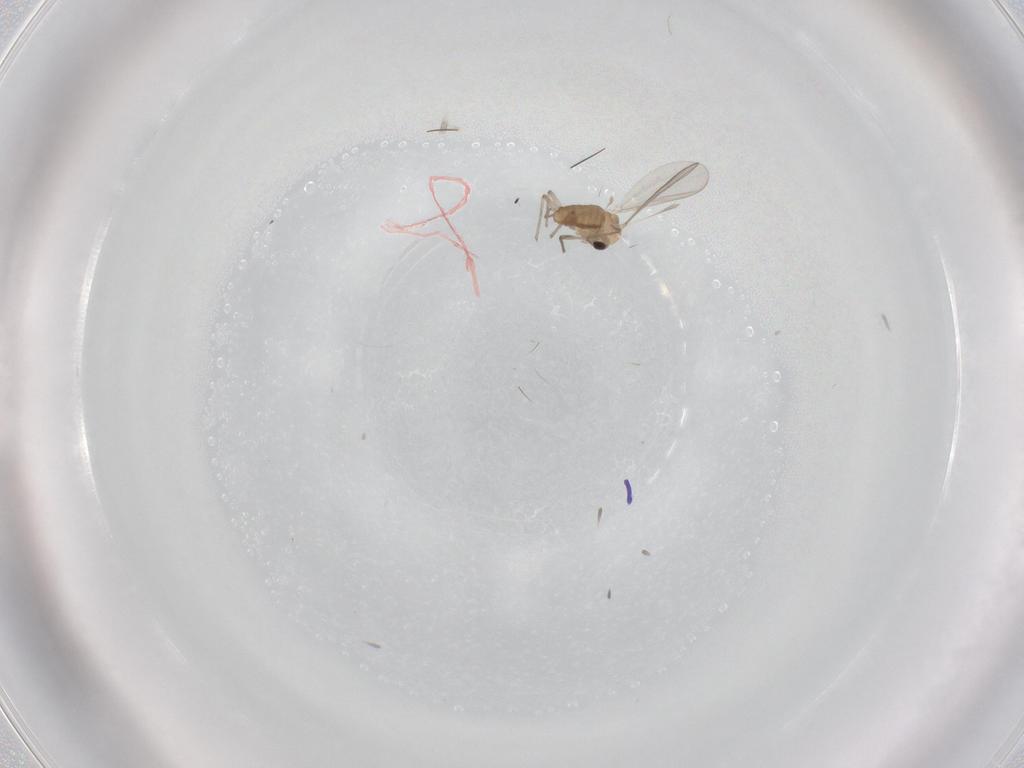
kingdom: Animalia
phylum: Arthropoda
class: Insecta
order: Diptera
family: Chironomidae
